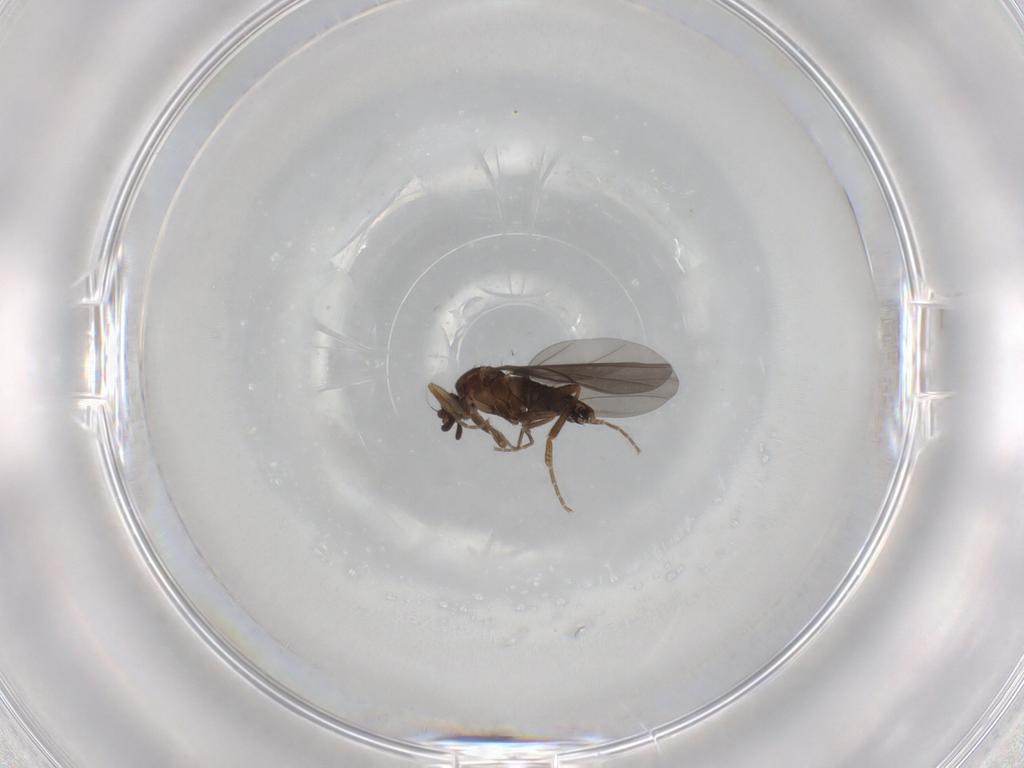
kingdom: Animalia
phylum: Arthropoda
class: Insecta
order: Diptera
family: Phoridae
